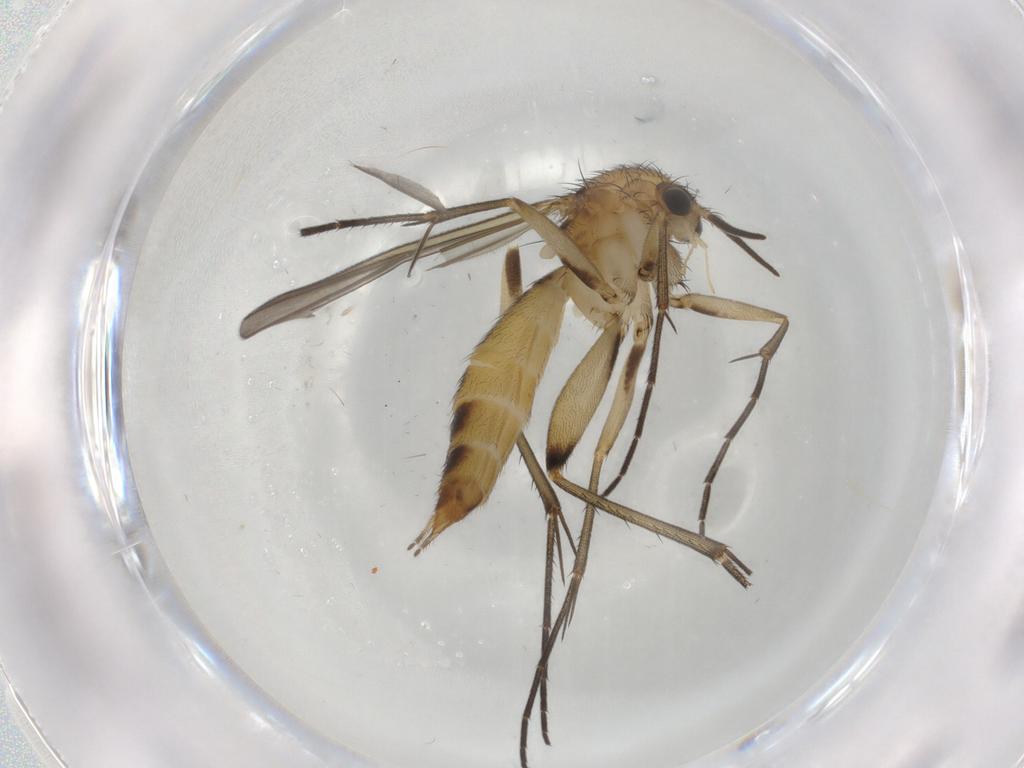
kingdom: Animalia
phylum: Arthropoda
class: Insecta
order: Diptera
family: Mycetophilidae
